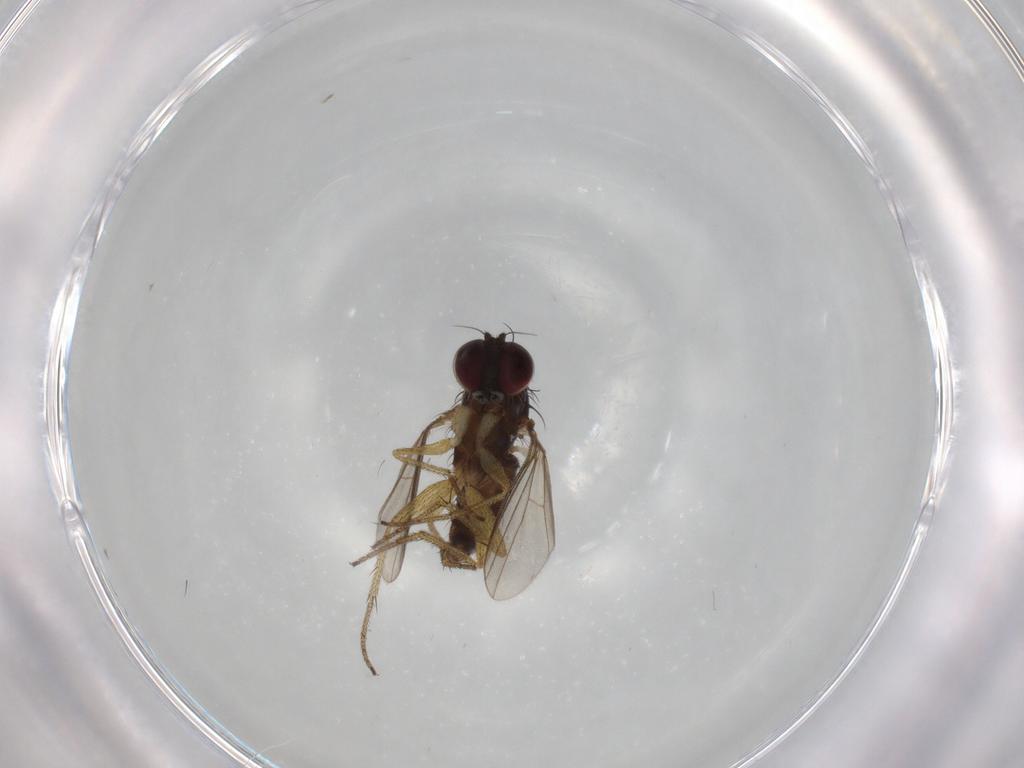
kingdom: Animalia
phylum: Arthropoda
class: Insecta
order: Diptera
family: Dolichopodidae
